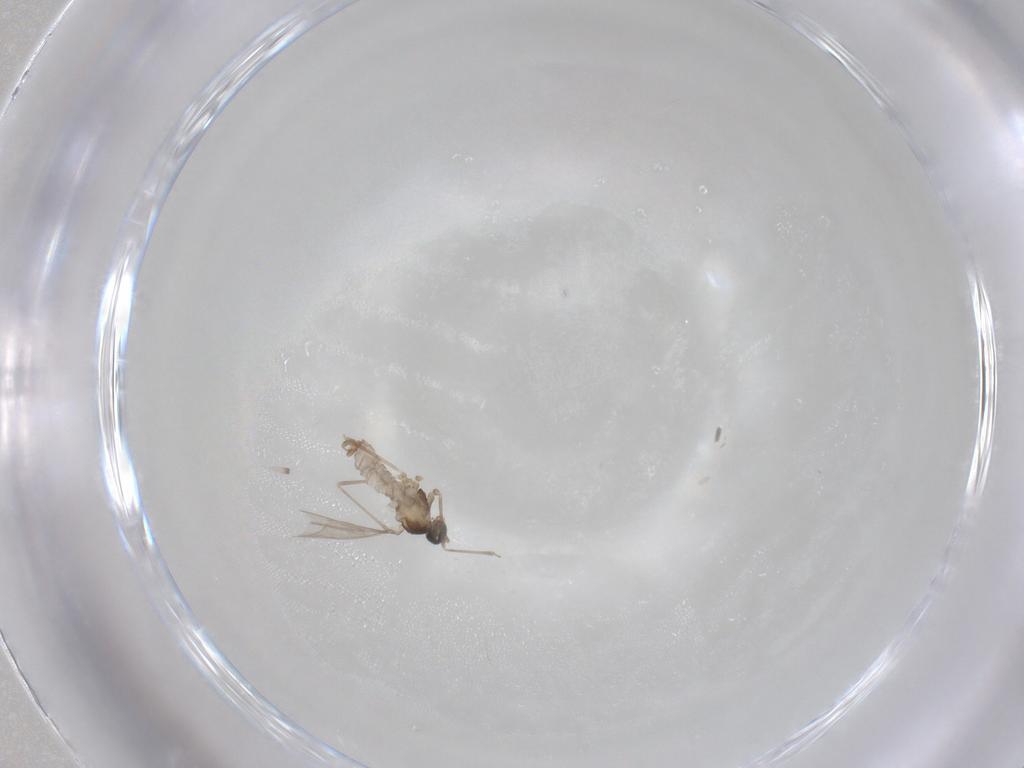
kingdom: Animalia
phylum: Arthropoda
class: Insecta
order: Diptera
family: Cecidomyiidae
